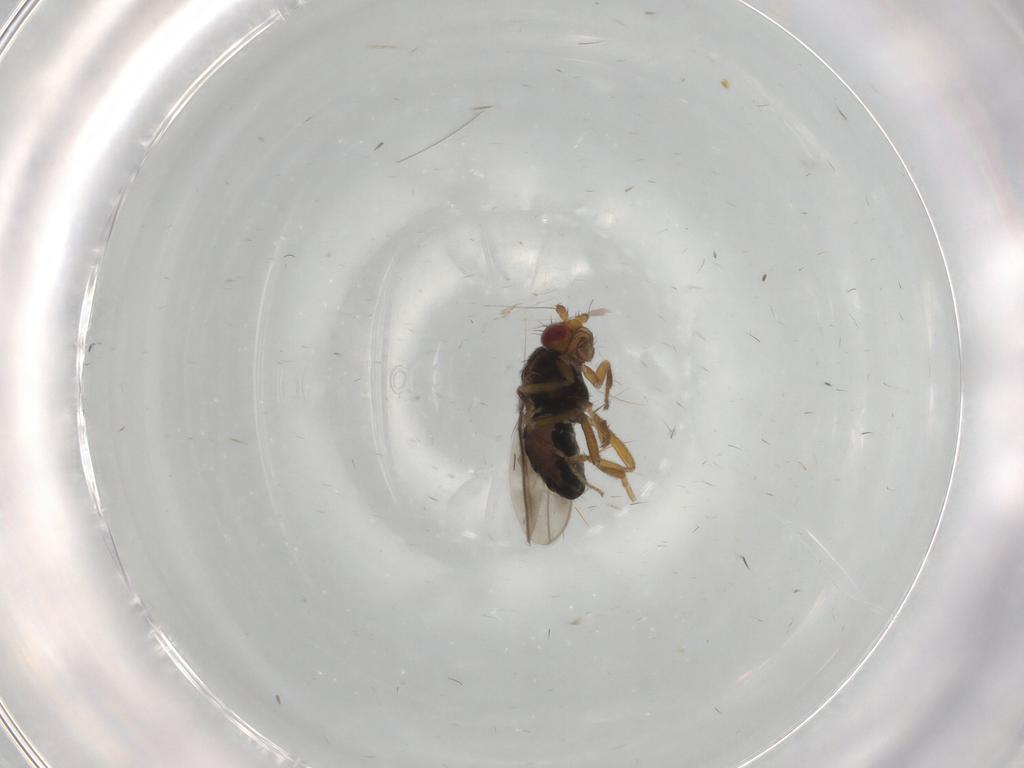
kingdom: Animalia
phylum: Arthropoda
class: Insecta
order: Diptera
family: Sphaeroceridae
